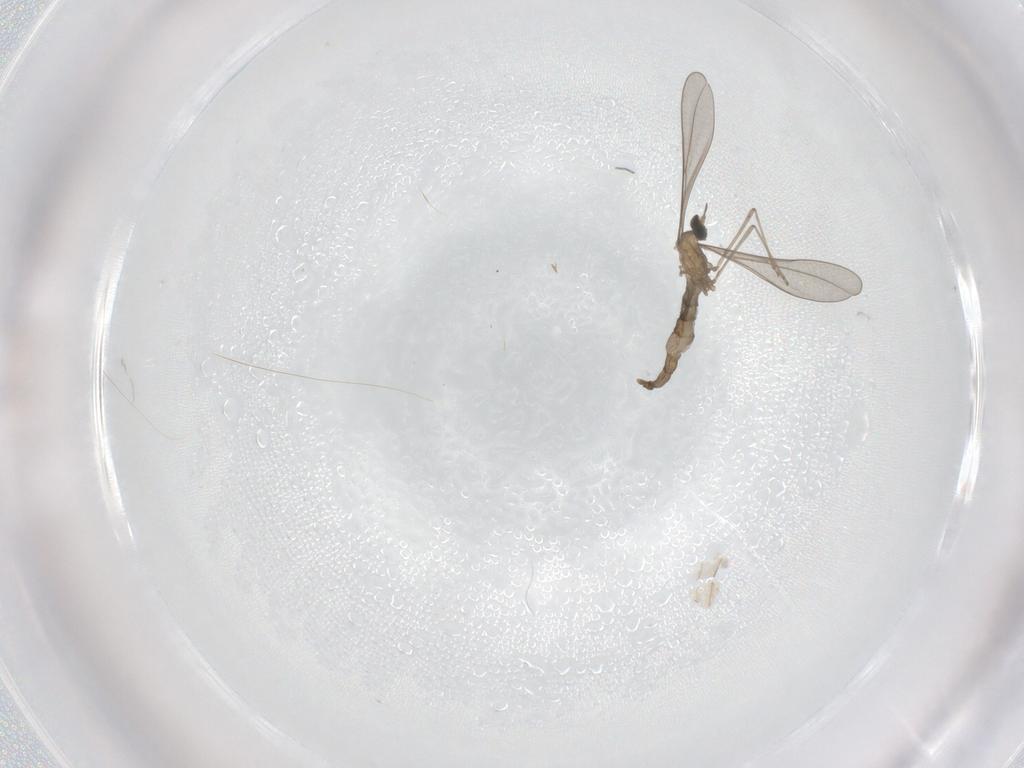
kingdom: Animalia
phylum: Arthropoda
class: Insecta
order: Diptera
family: Cecidomyiidae
